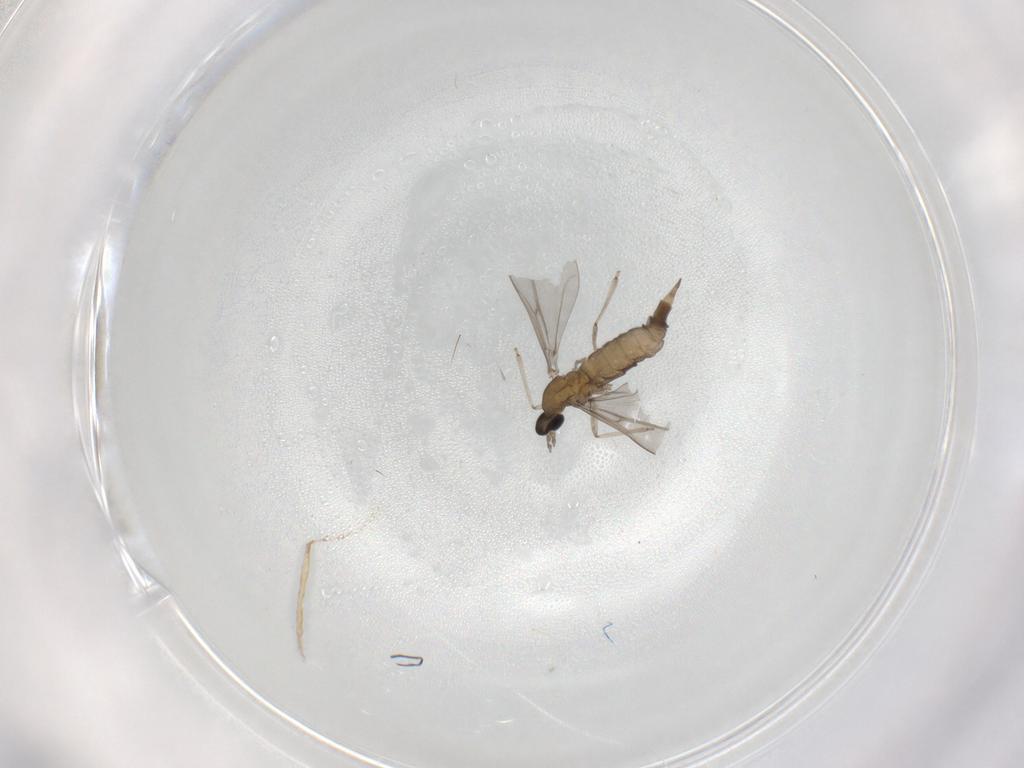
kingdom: Animalia
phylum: Arthropoda
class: Insecta
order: Diptera
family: Cecidomyiidae
